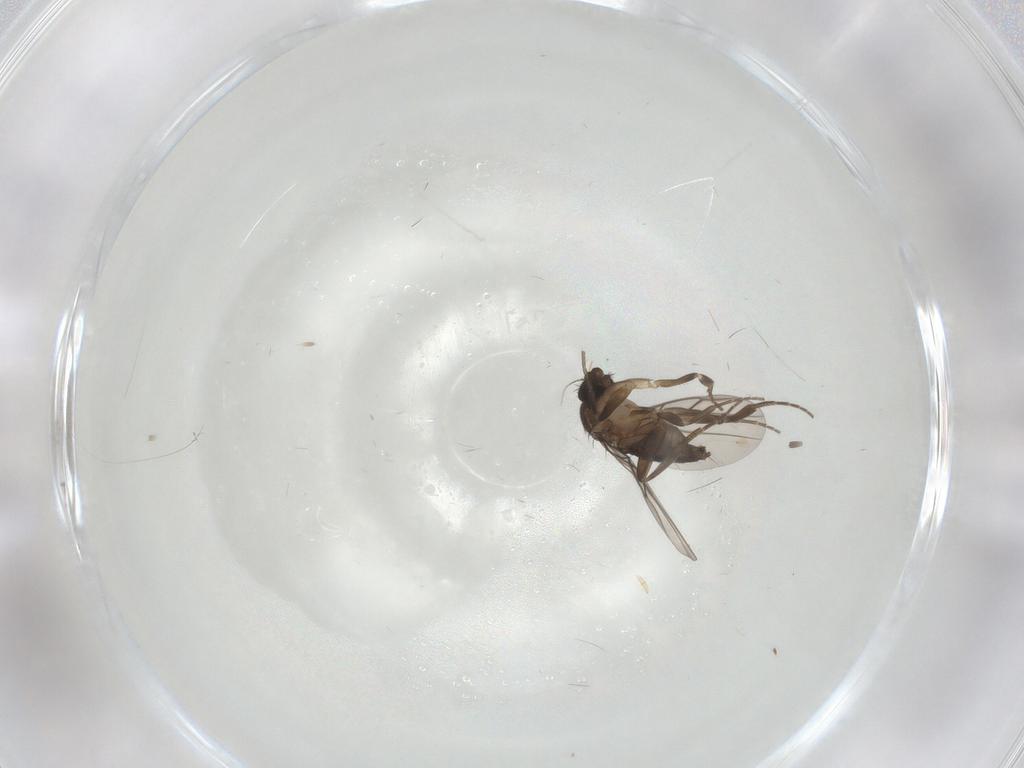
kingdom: Animalia
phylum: Arthropoda
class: Insecta
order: Diptera
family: Phoridae
